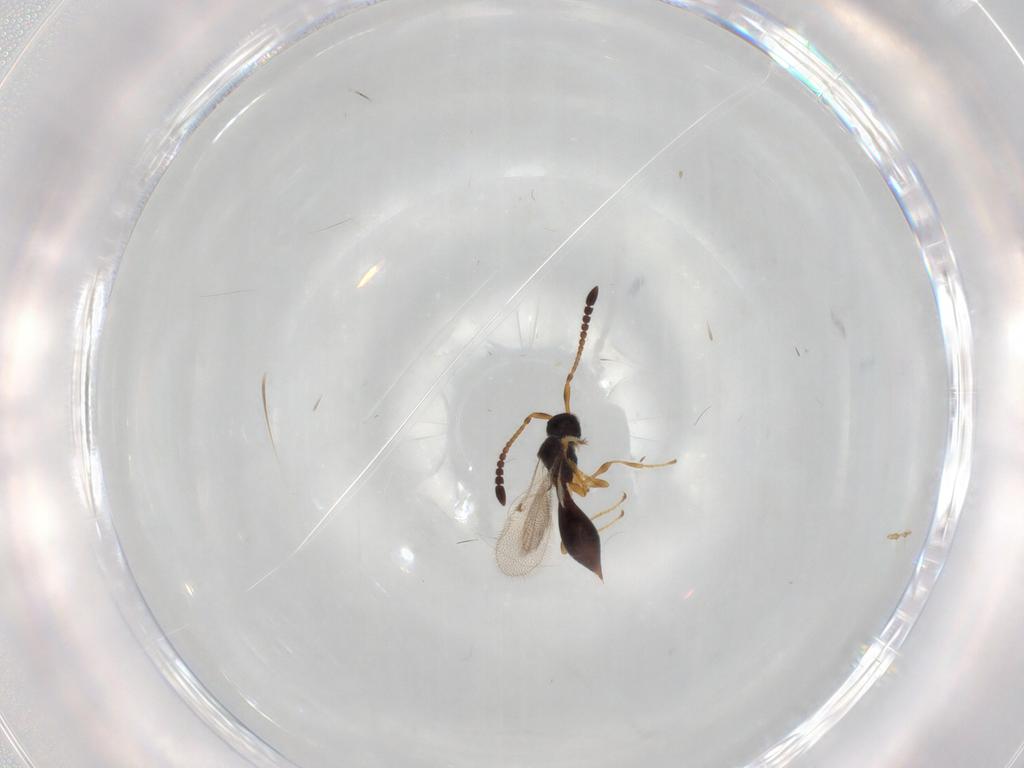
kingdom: Animalia
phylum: Arthropoda
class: Insecta
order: Hymenoptera
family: Diapriidae
